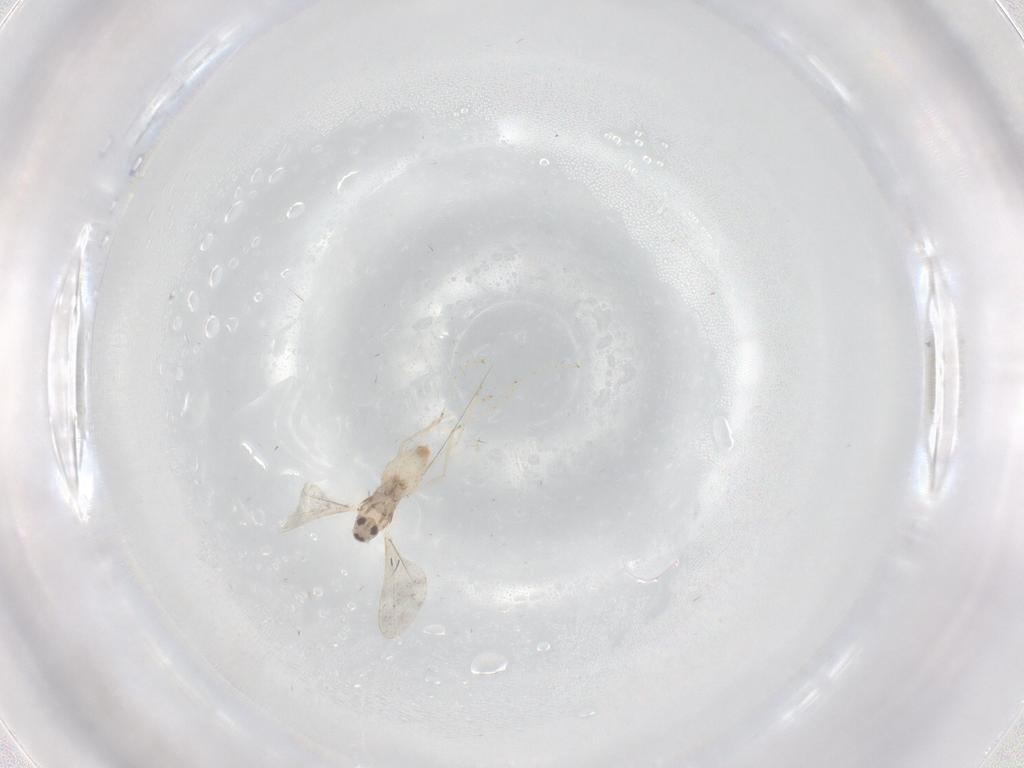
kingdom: Animalia
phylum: Arthropoda
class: Insecta
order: Diptera
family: Cecidomyiidae
